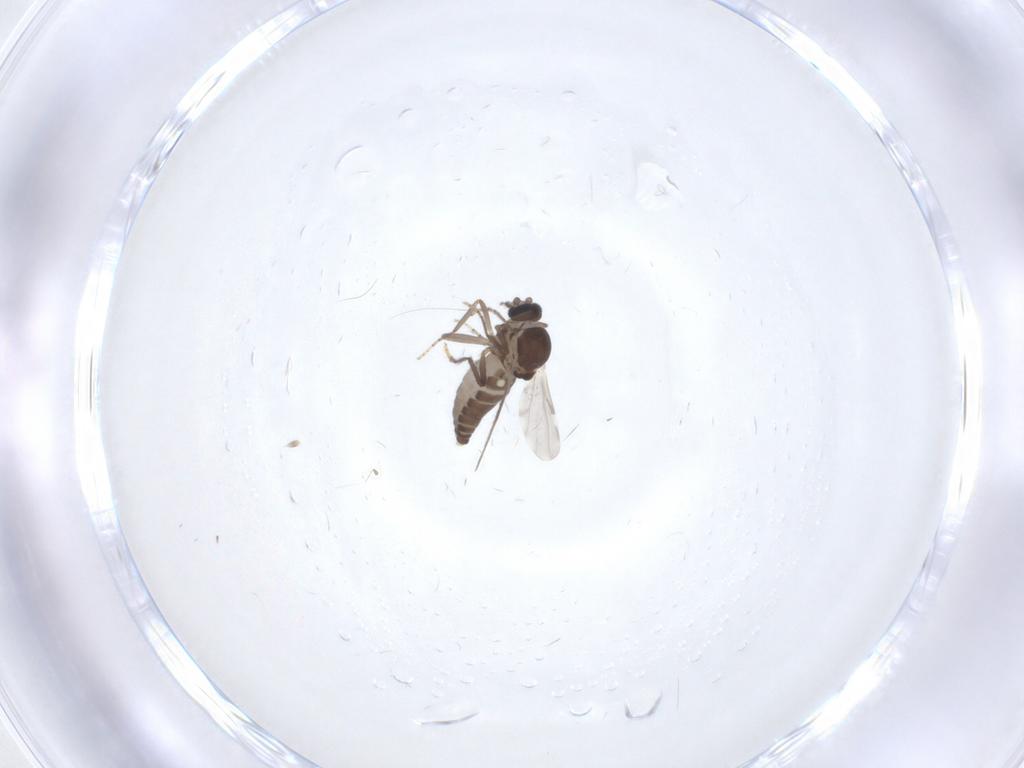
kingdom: Animalia
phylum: Arthropoda
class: Insecta
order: Diptera
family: Ceratopogonidae
